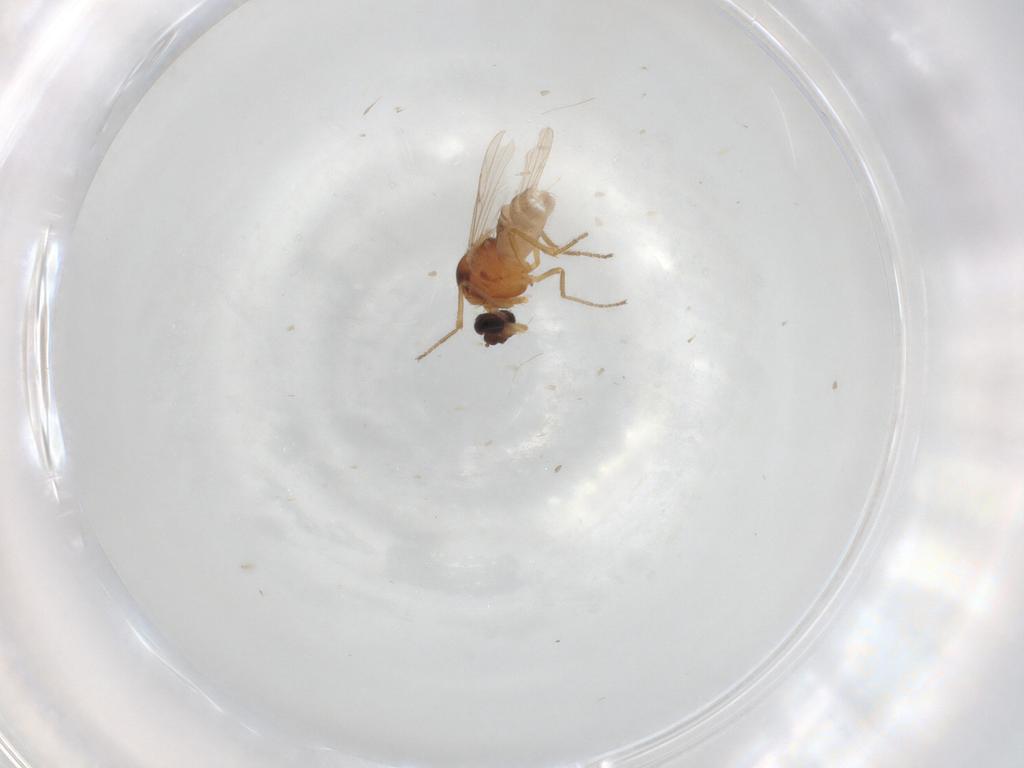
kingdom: Animalia
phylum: Arthropoda
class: Insecta
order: Diptera
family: Ceratopogonidae
